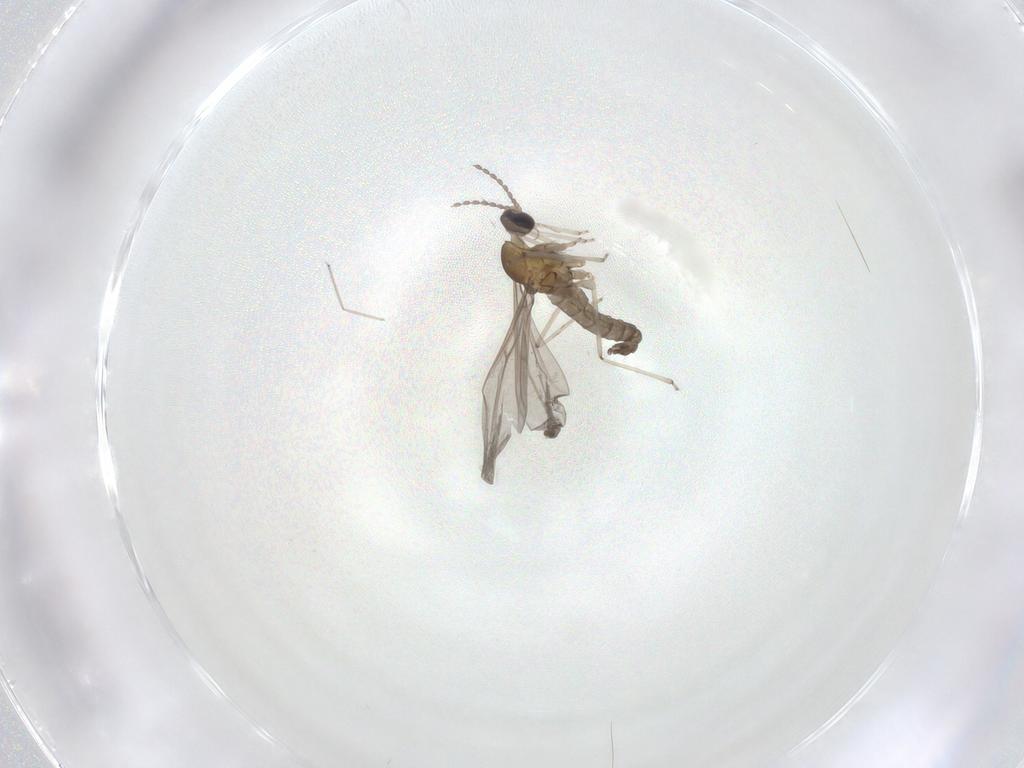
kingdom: Animalia
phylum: Arthropoda
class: Insecta
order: Diptera
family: Cecidomyiidae
